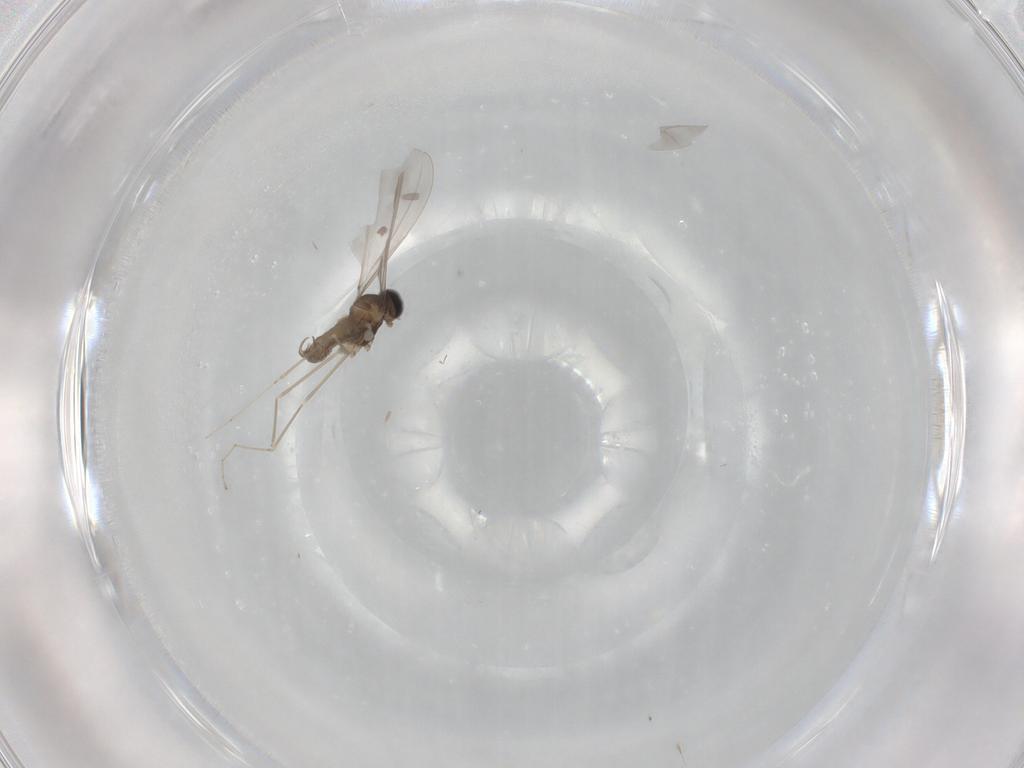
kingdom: Animalia
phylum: Arthropoda
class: Insecta
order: Diptera
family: Cecidomyiidae
